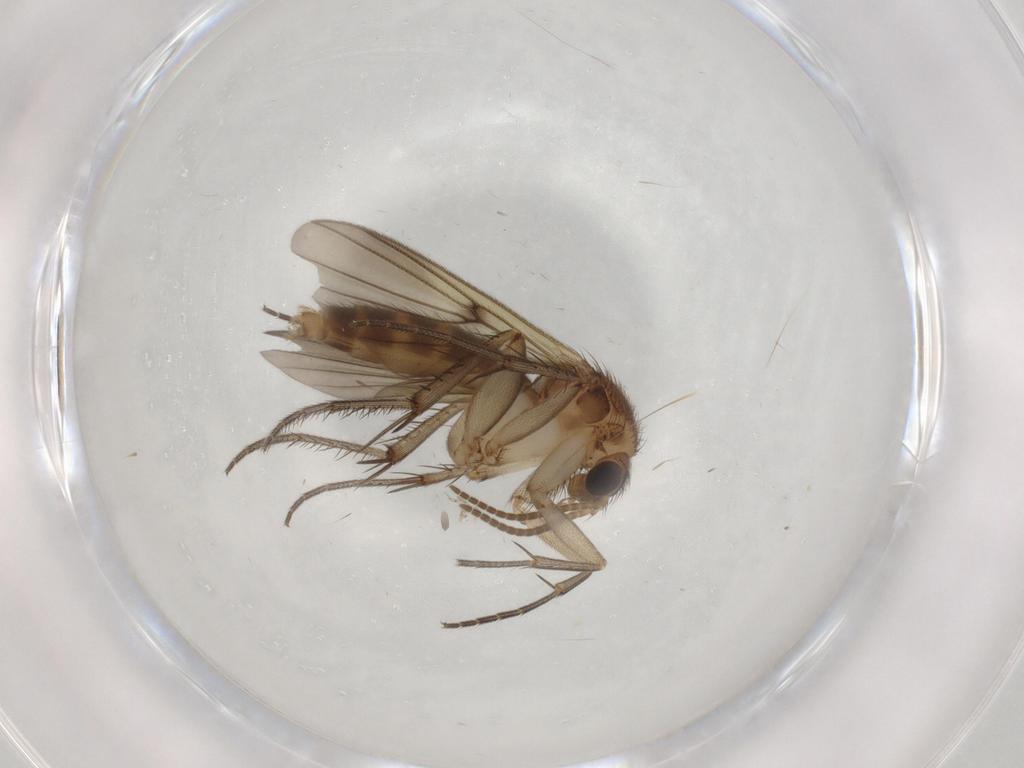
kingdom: Animalia
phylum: Arthropoda
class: Insecta
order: Diptera
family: Mycetophilidae
